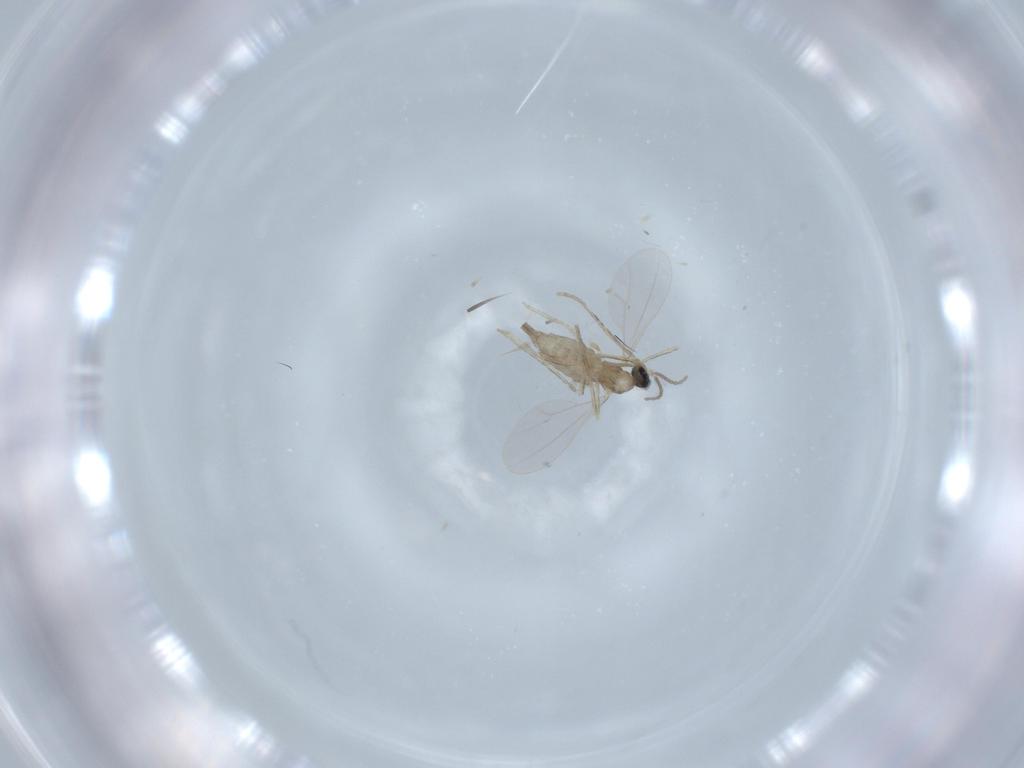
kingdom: Animalia
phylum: Arthropoda
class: Insecta
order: Diptera
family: Cecidomyiidae
